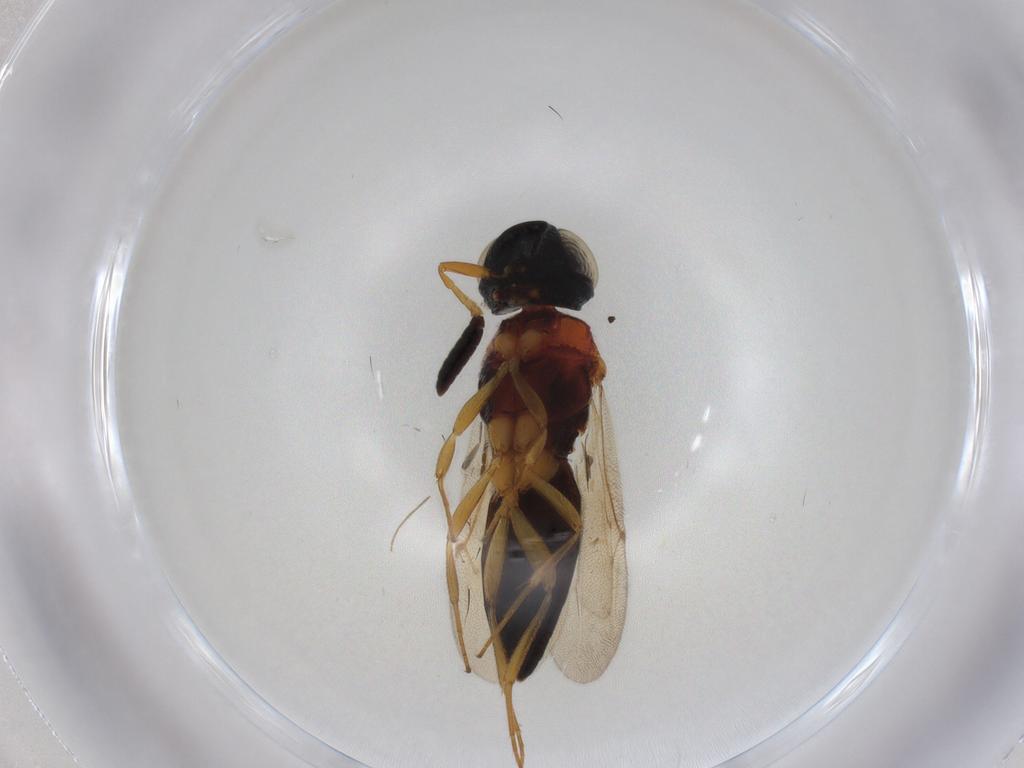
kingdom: Animalia
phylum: Arthropoda
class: Insecta
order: Hymenoptera
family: Scelionidae
